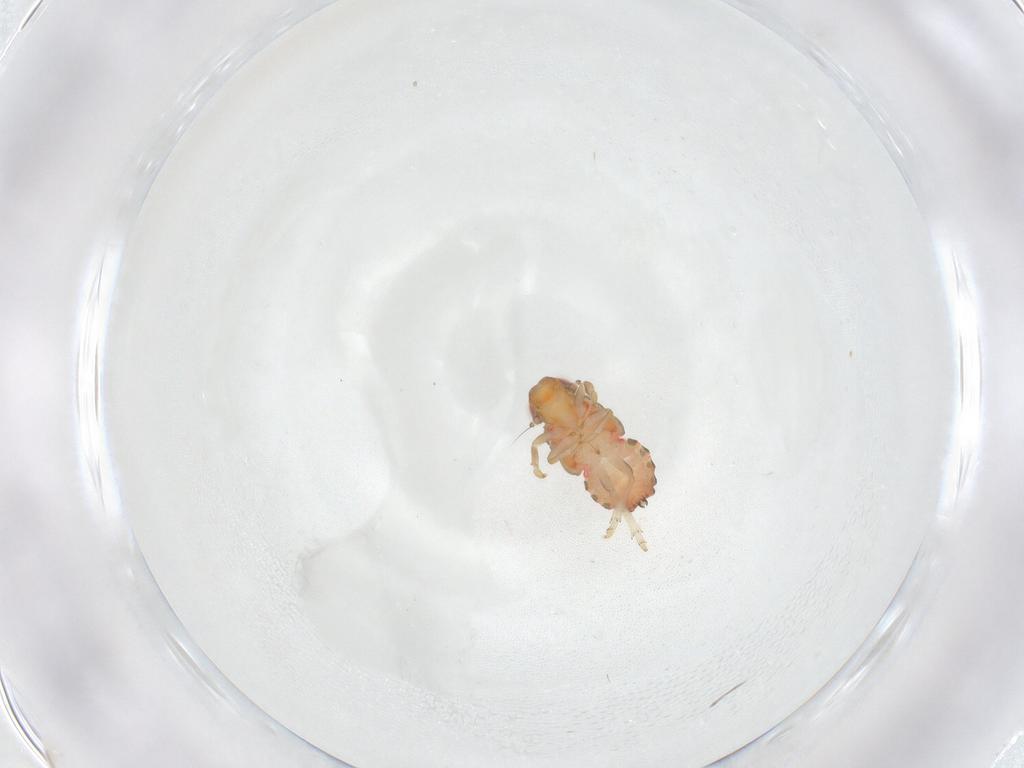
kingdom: Animalia
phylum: Arthropoda
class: Insecta
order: Hemiptera
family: Issidae
